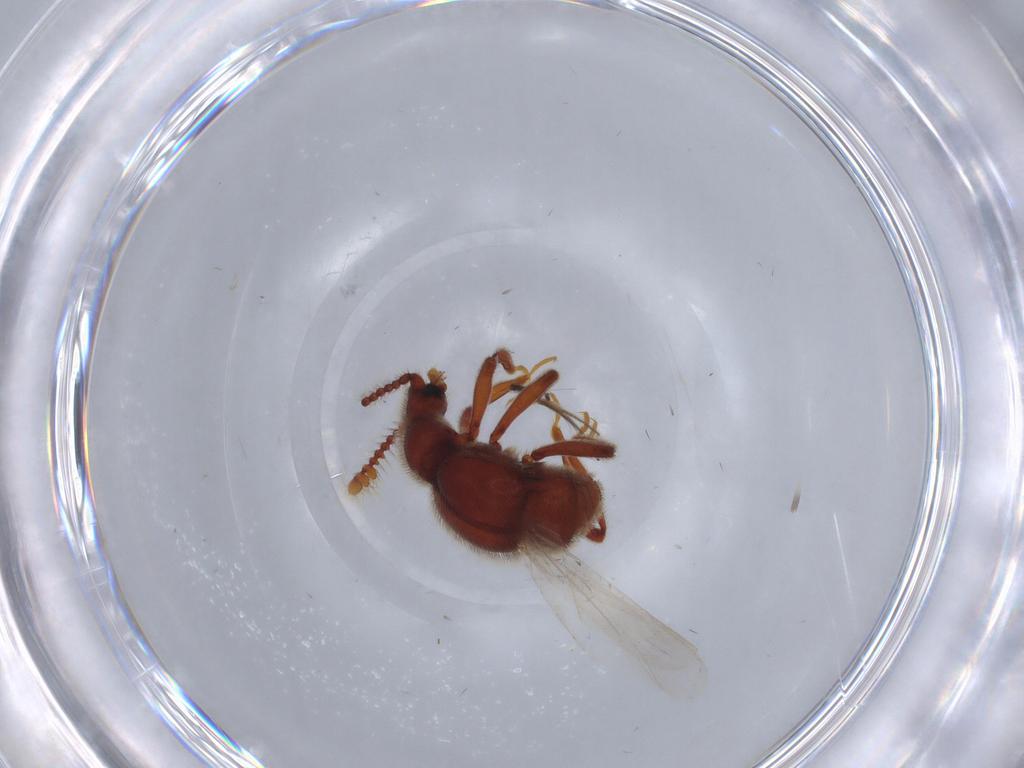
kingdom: Animalia
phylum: Arthropoda
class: Insecta
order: Coleoptera
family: Staphylinidae
